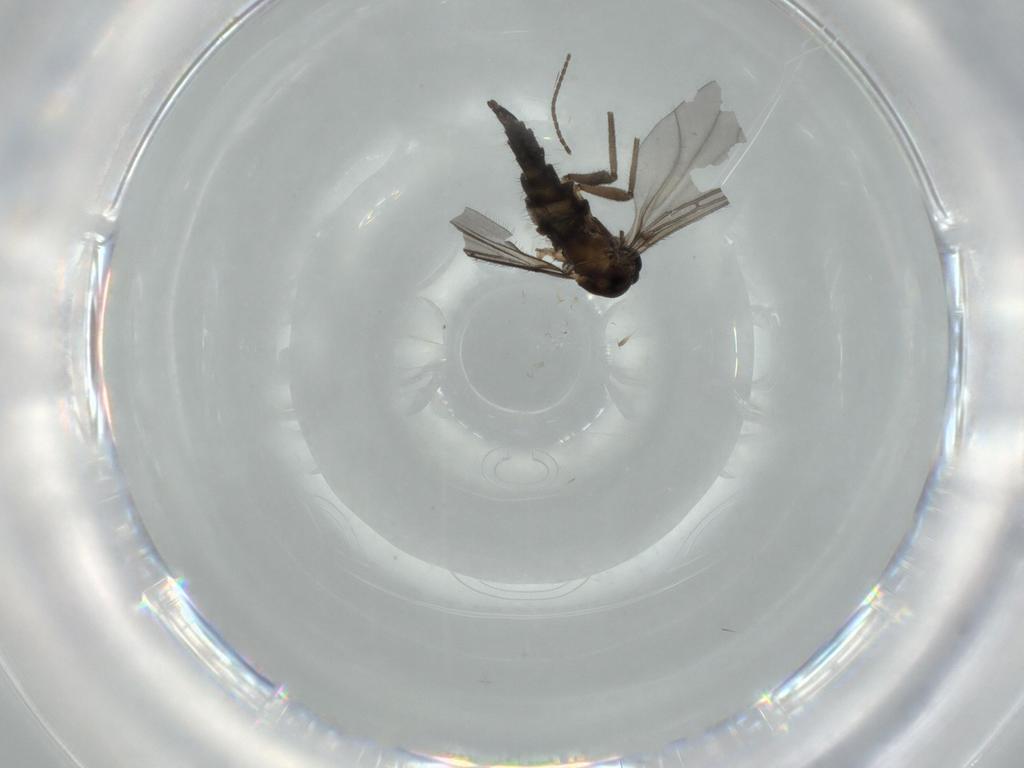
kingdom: Animalia
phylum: Arthropoda
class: Insecta
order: Diptera
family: Sciaridae
